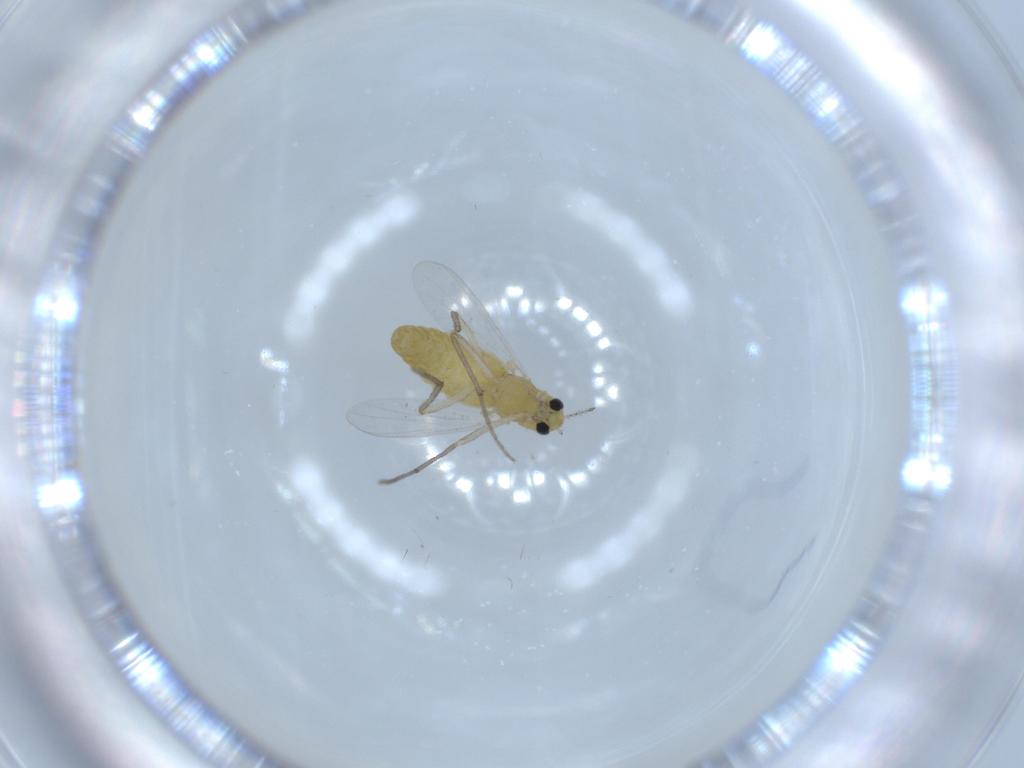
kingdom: Animalia
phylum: Arthropoda
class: Insecta
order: Diptera
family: Chironomidae
